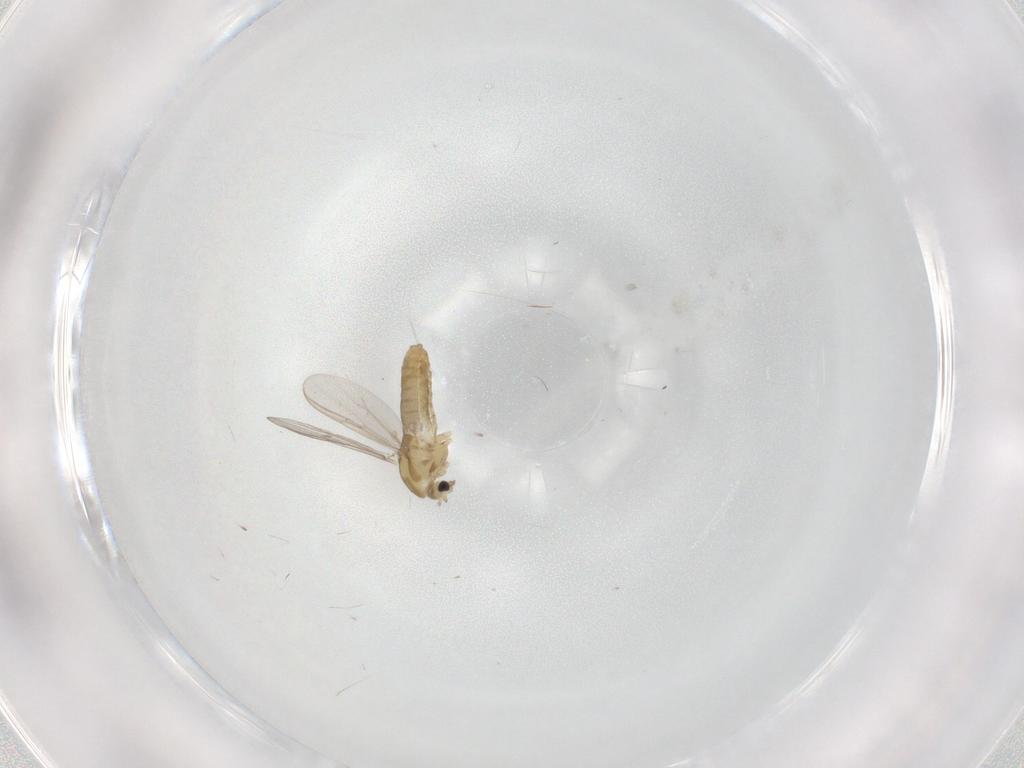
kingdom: Animalia
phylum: Arthropoda
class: Insecta
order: Diptera
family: Chironomidae
